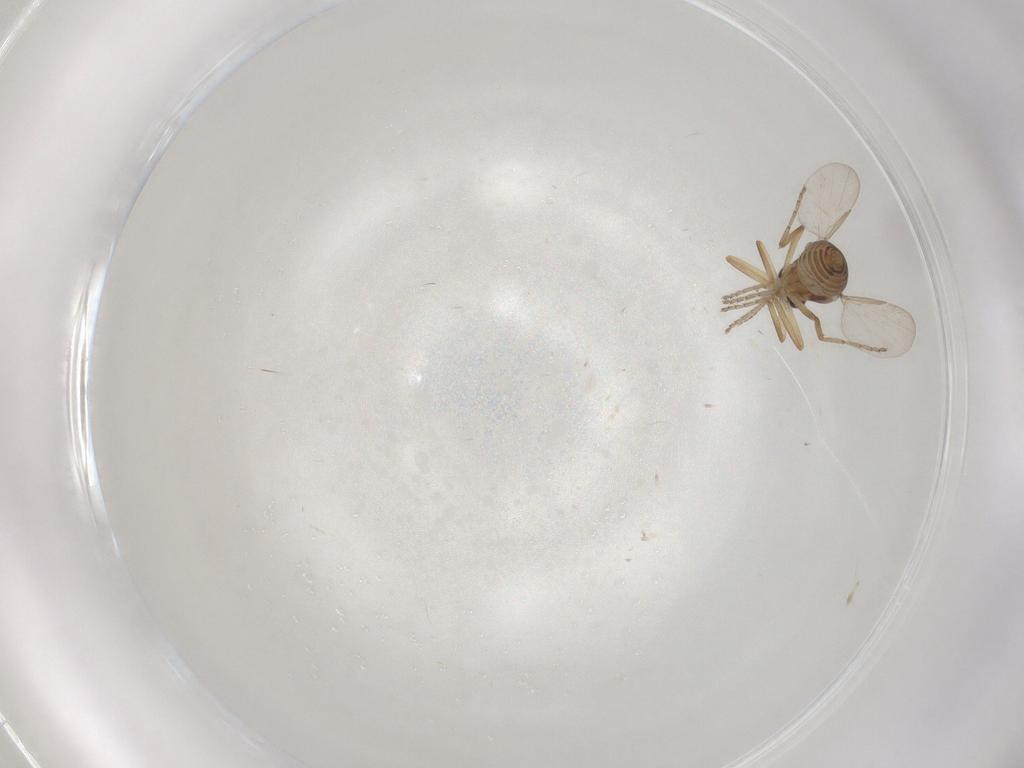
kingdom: Animalia
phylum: Arthropoda
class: Insecta
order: Diptera
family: Ceratopogonidae
